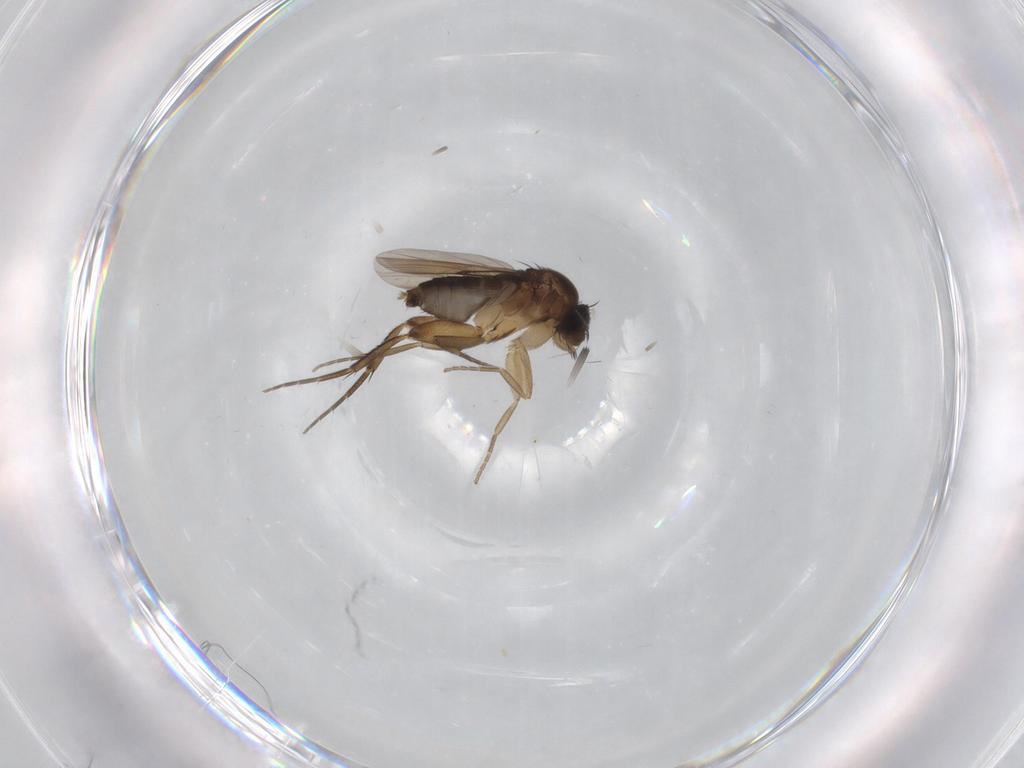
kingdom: Animalia
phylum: Arthropoda
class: Insecta
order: Diptera
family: Phoridae
